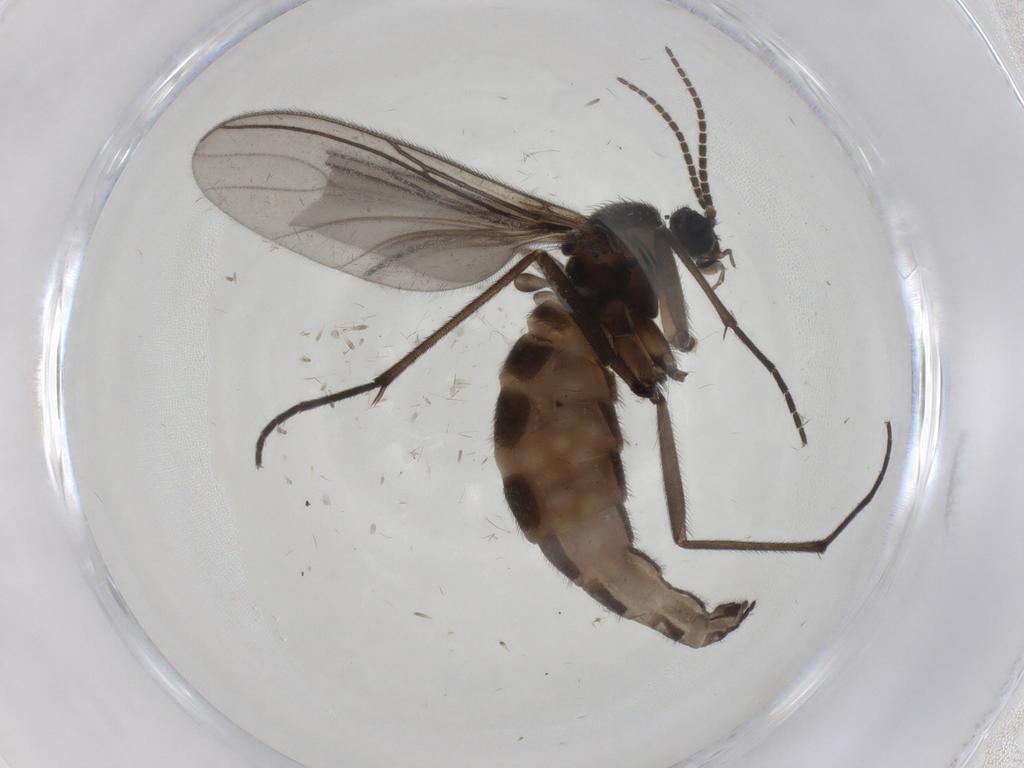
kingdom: Animalia
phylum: Arthropoda
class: Insecta
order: Diptera
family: Sciaridae
